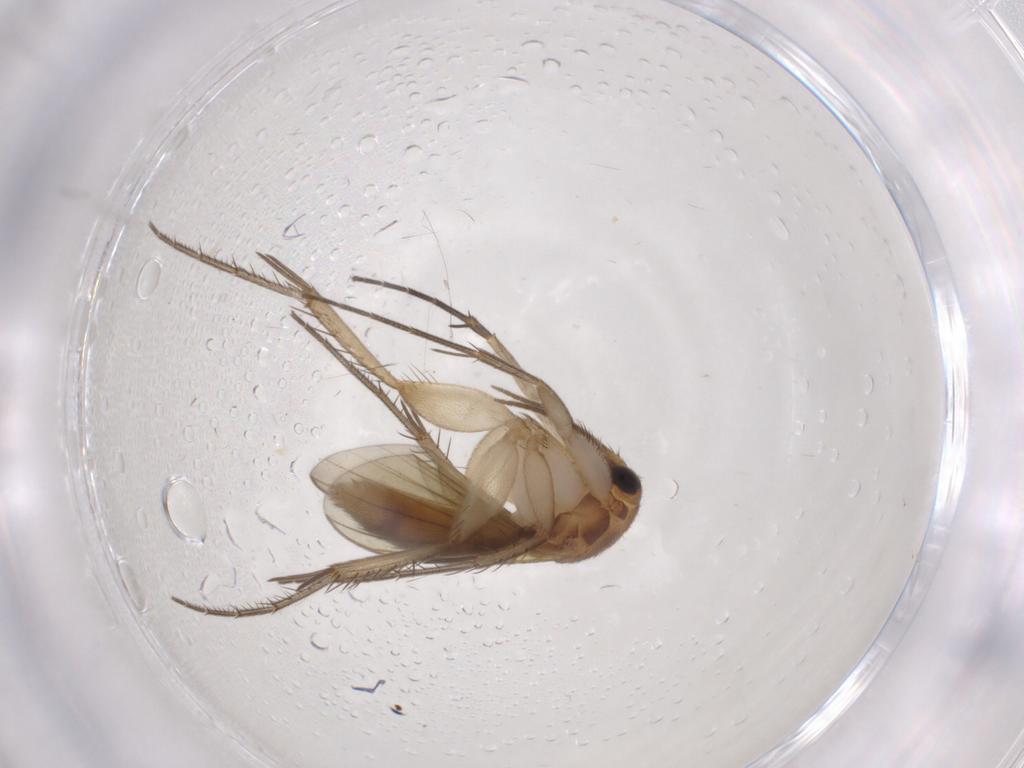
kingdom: Animalia
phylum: Arthropoda
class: Insecta
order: Diptera
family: Mycetophilidae
